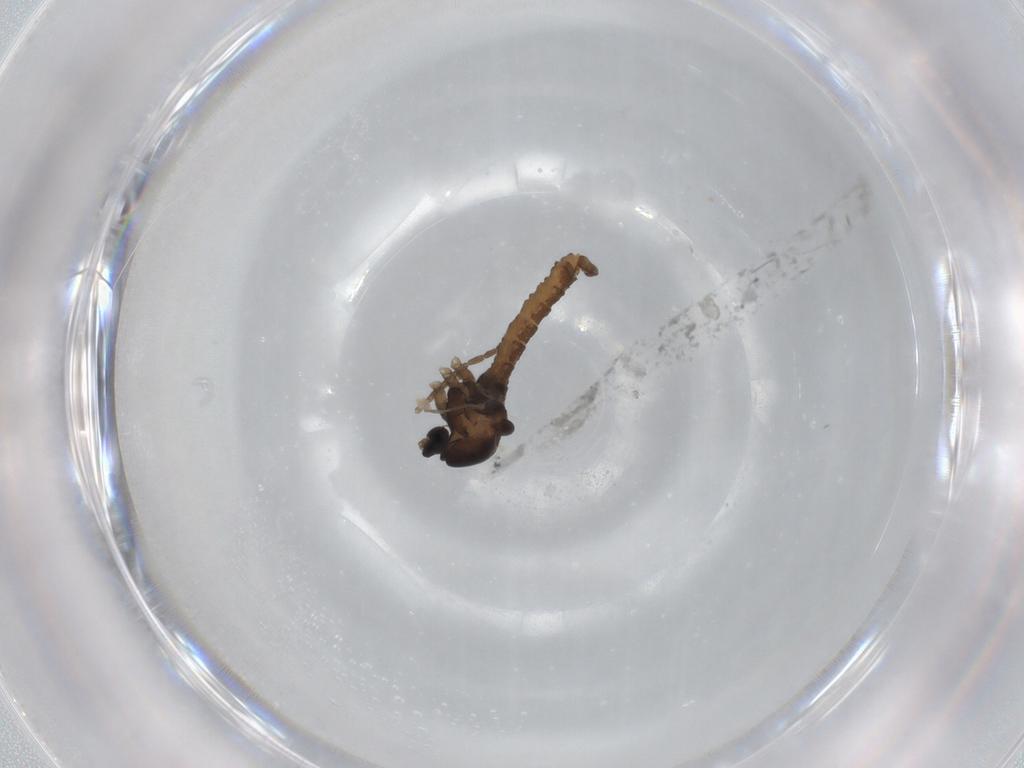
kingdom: Animalia
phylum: Arthropoda
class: Insecta
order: Diptera
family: Cecidomyiidae
